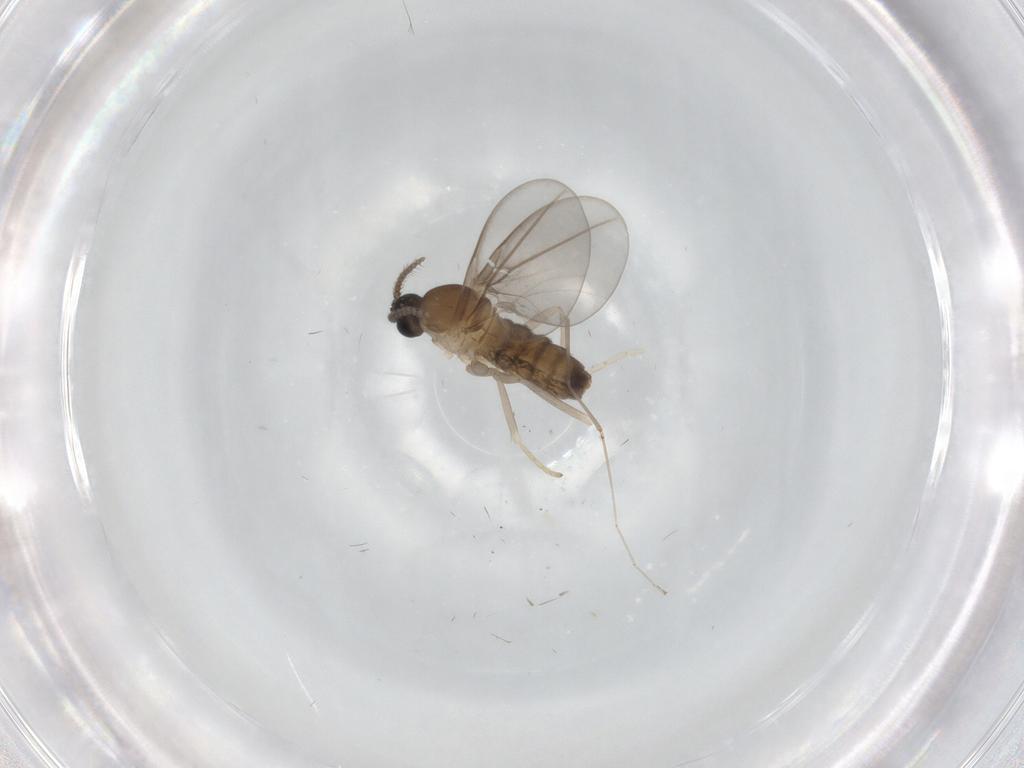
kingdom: Animalia
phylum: Arthropoda
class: Insecta
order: Diptera
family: Cecidomyiidae
